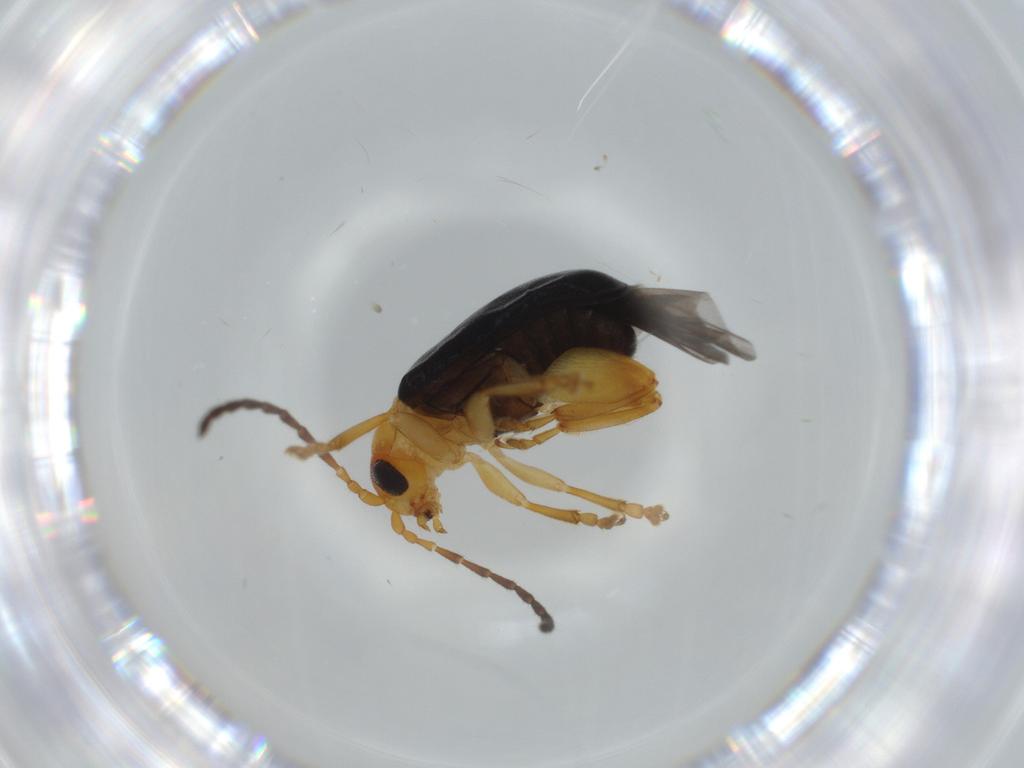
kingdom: Animalia
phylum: Arthropoda
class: Insecta
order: Coleoptera
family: Chrysomelidae
